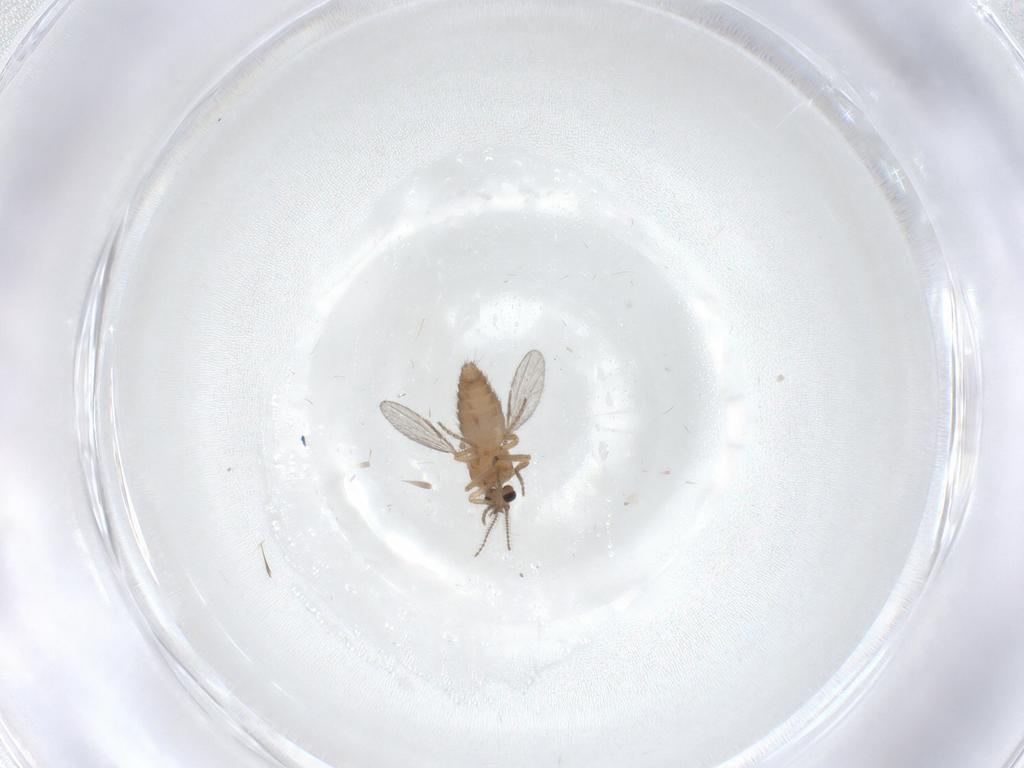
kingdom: Animalia
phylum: Arthropoda
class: Insecta
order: Diptera
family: Ceratopogonidae
